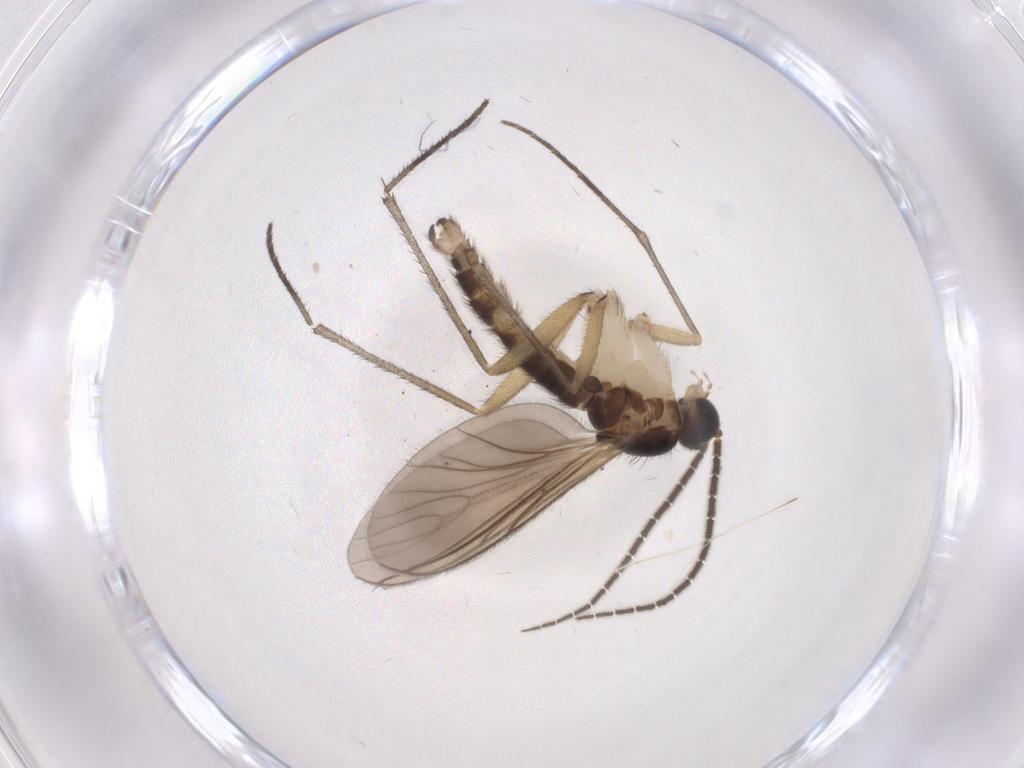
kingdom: Animalia
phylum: Arthropoda
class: Insecta
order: Diptera
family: Sciaridae
